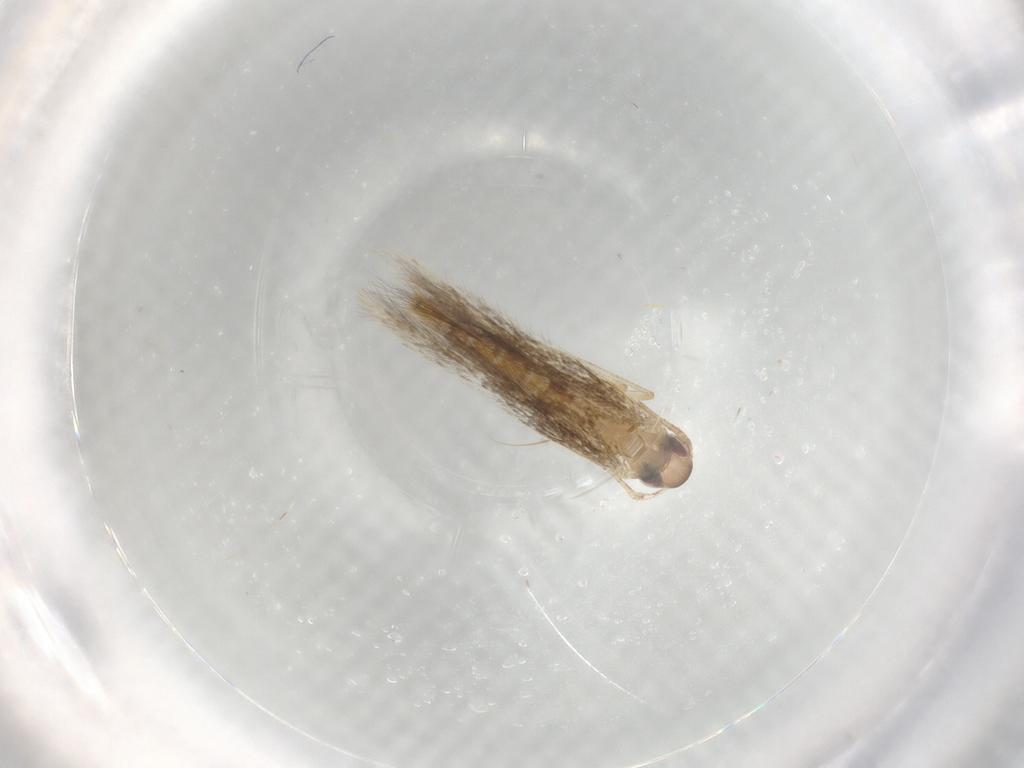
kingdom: Animalia
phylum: Arthropoda
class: Insecta
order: Lepidoptera
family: Cosmopterigidae
